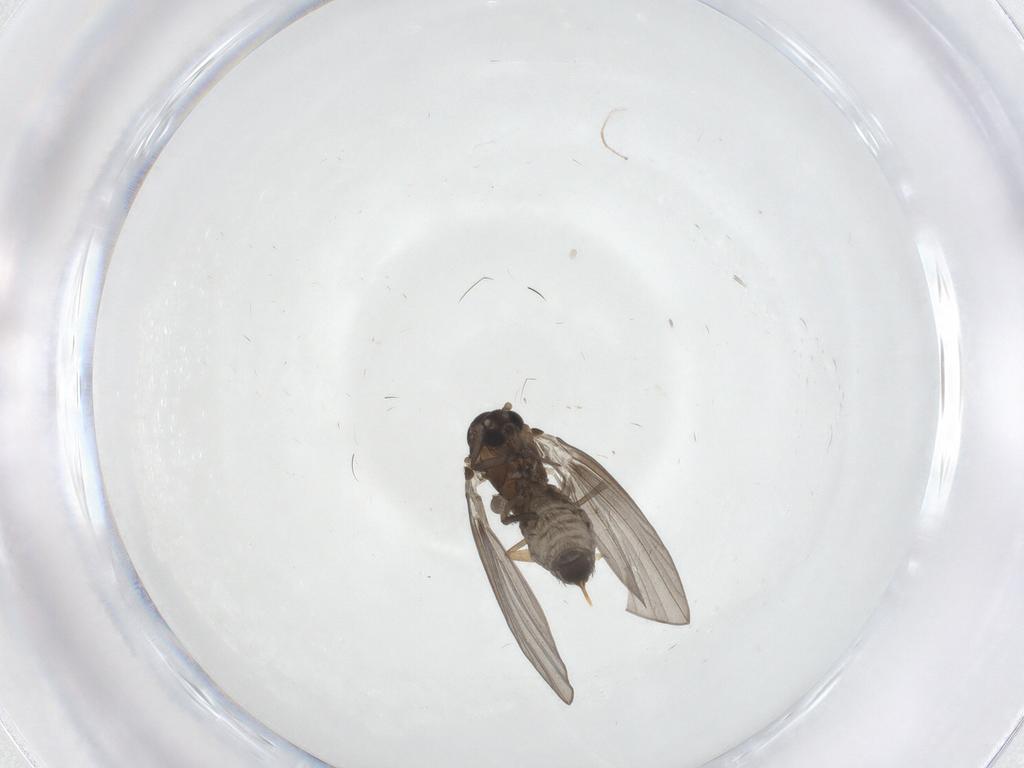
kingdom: Animalia
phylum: Arthropoda
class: Insecta
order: Diptera
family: Psychodidae
